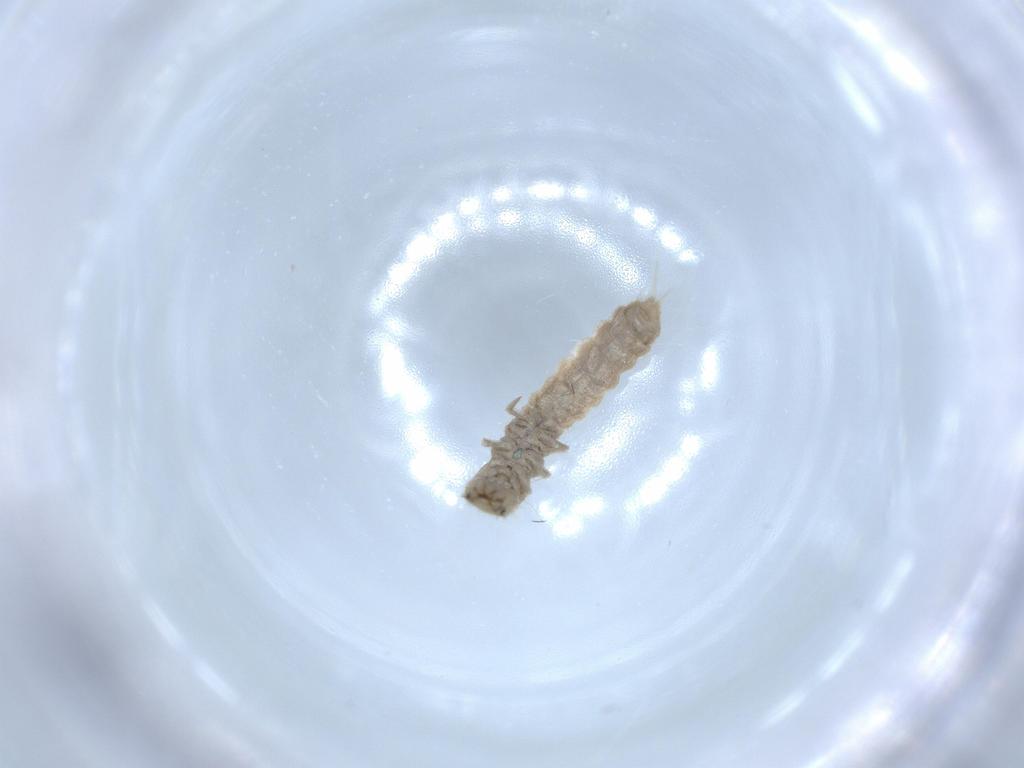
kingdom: Animalia
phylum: Arthropoda
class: Insecta
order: Coleoptera
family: Scraptiidae
